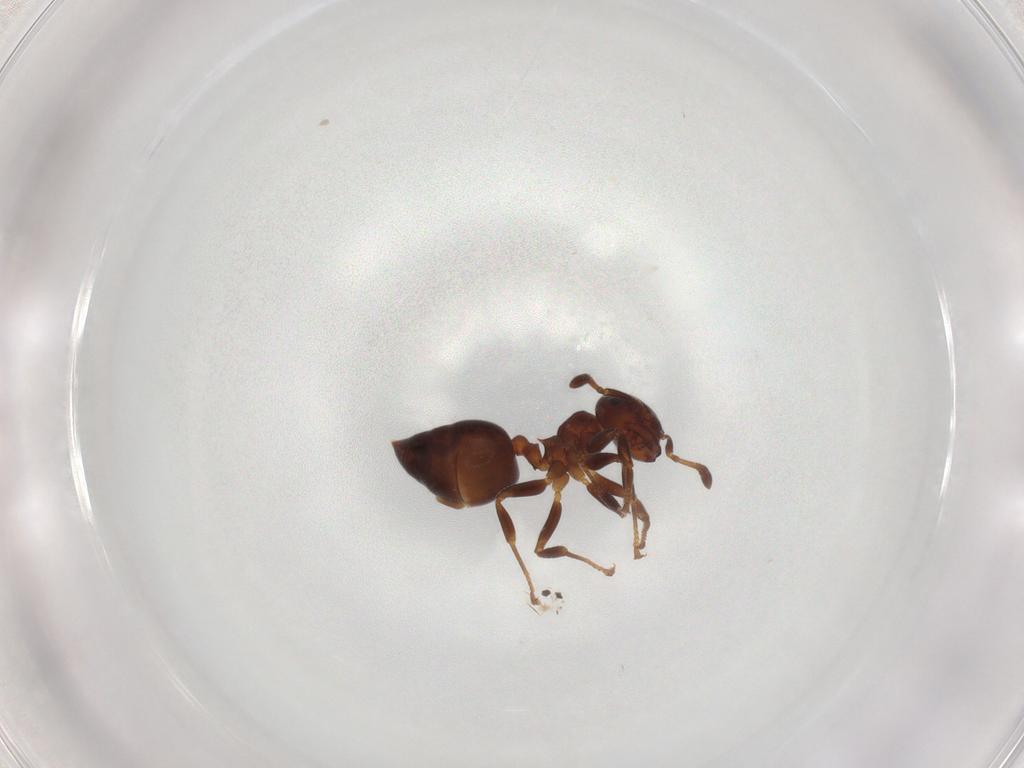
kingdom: Animalia
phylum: Arthropoda
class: Insecta
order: Hymenoptera
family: Formicidae
